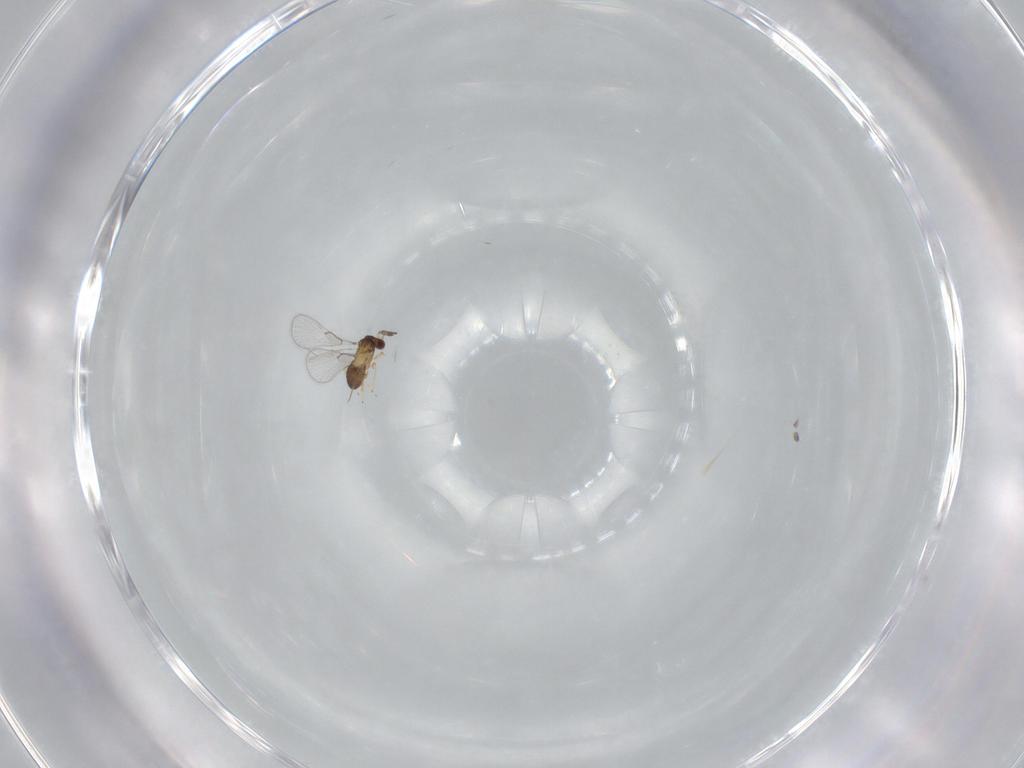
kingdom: Animalia
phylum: Arthropoda
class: Insecta
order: Hymenoptera
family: Trichogrammatidae
